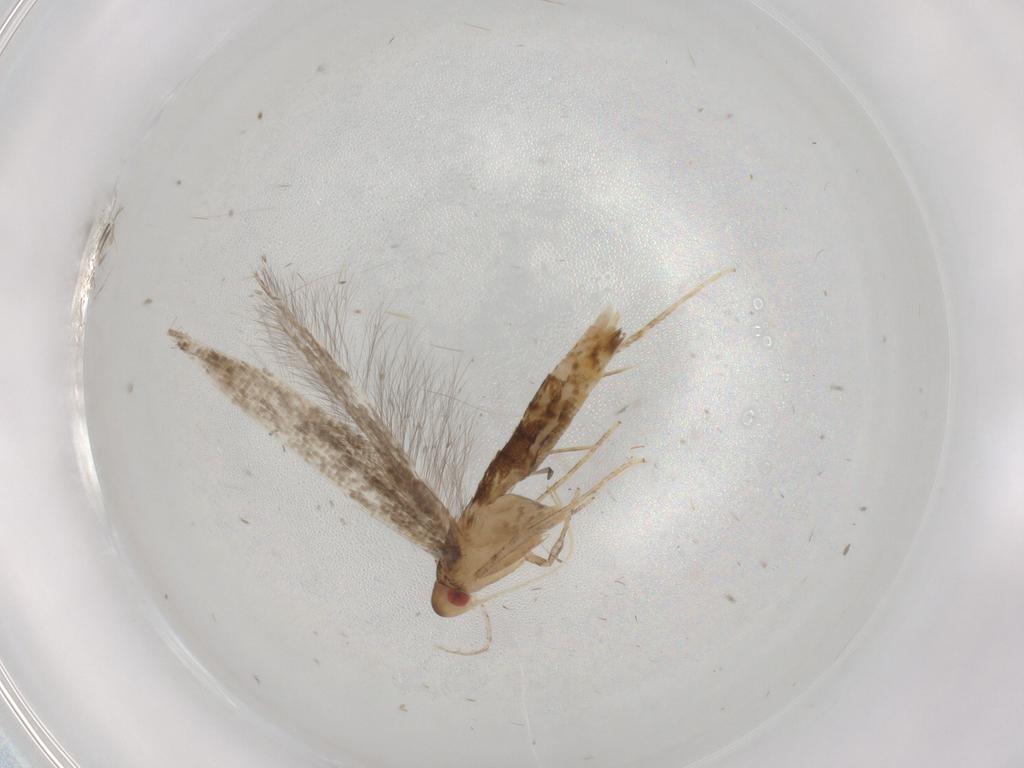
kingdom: Animalia
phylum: Arthropoda
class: Insecta
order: Lepidoptera
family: Cosmopterigidae
